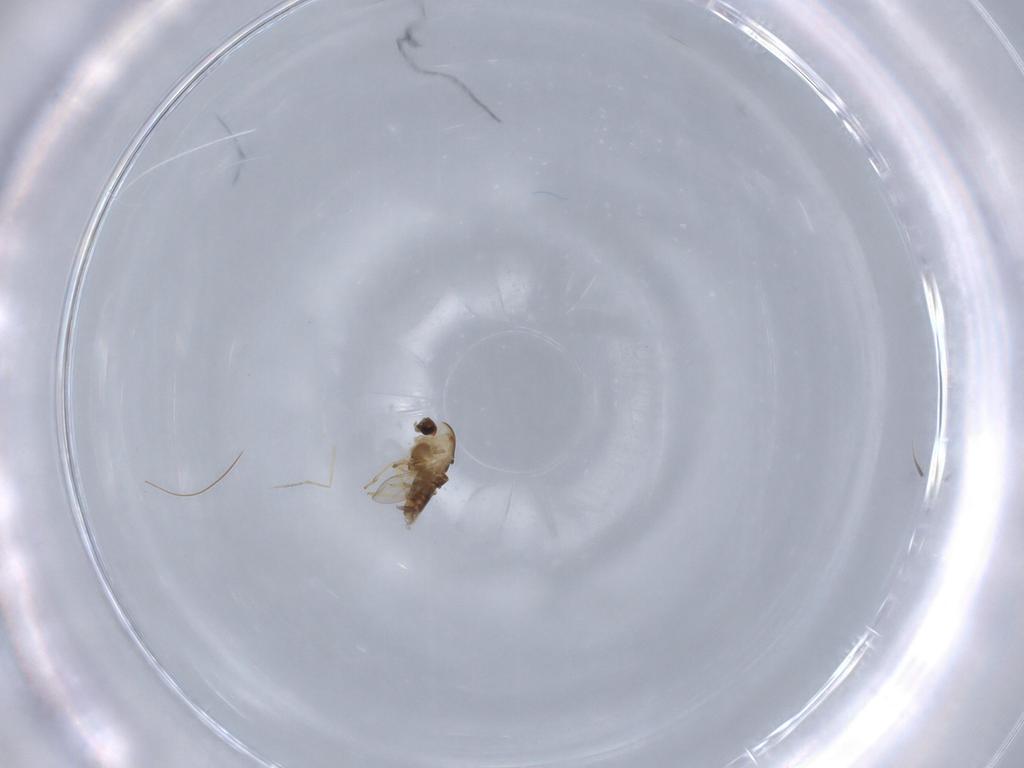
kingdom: Animalia
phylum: Arthropoda
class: Insecta
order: Diptera
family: Chironomidae
